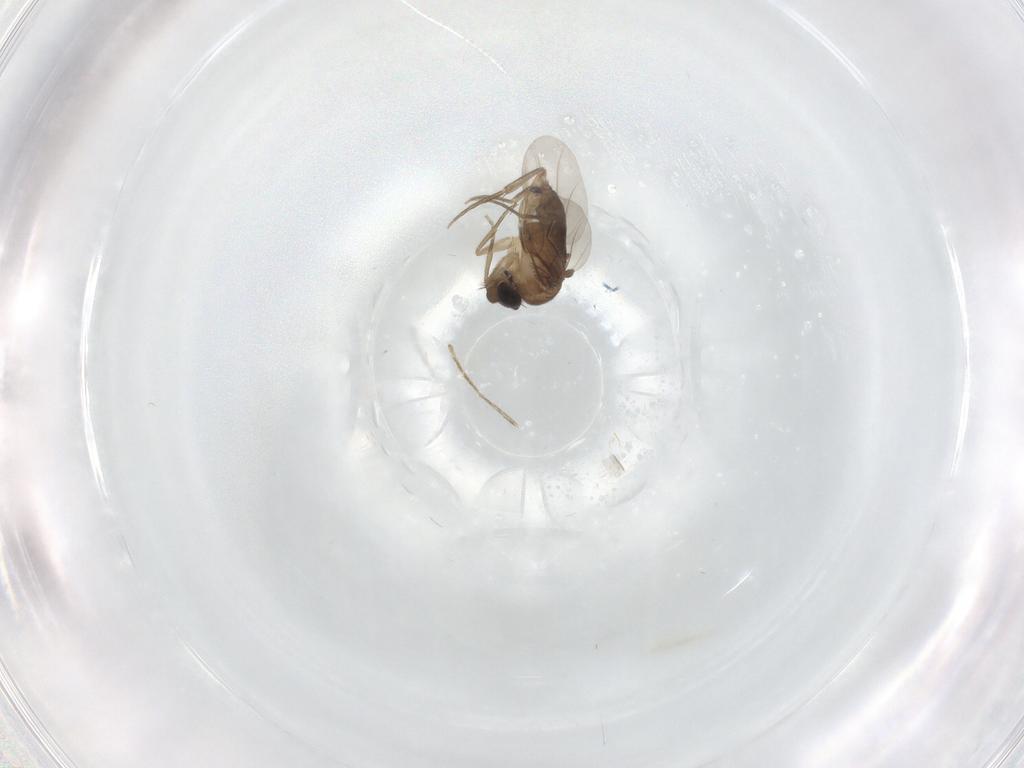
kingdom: Animalia
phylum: Arthropoda
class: Insecta
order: Diptera
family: Phoridae
